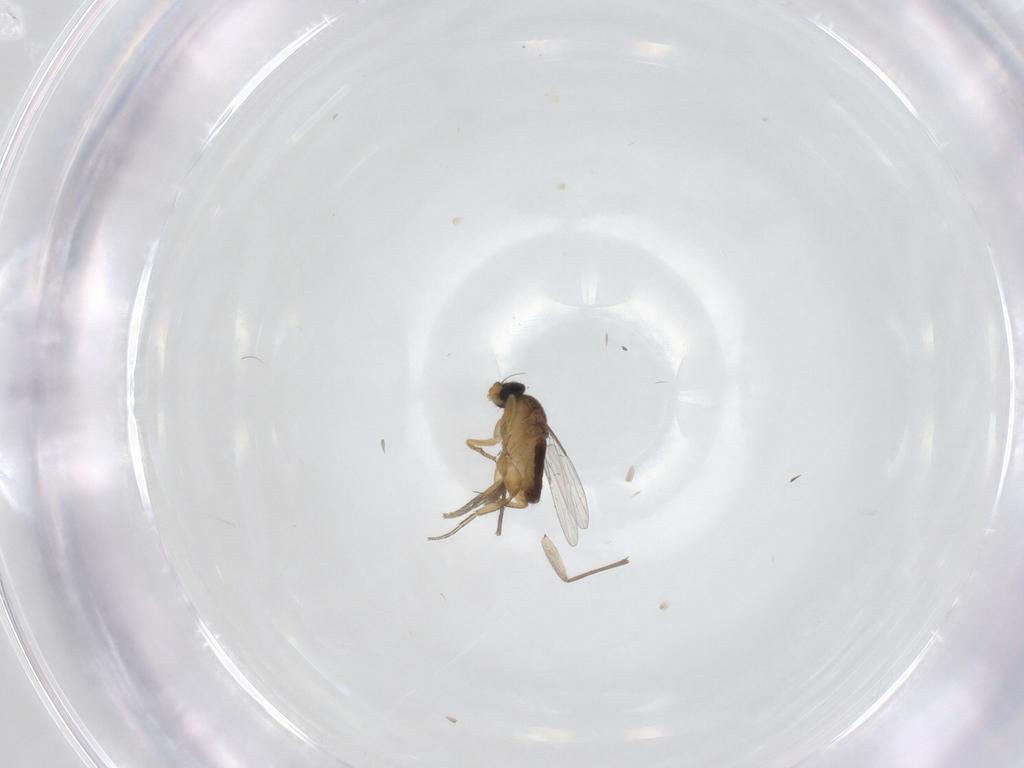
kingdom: Animalia
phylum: Arthropoda
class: Insecta
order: Diptera
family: Sciaridae
